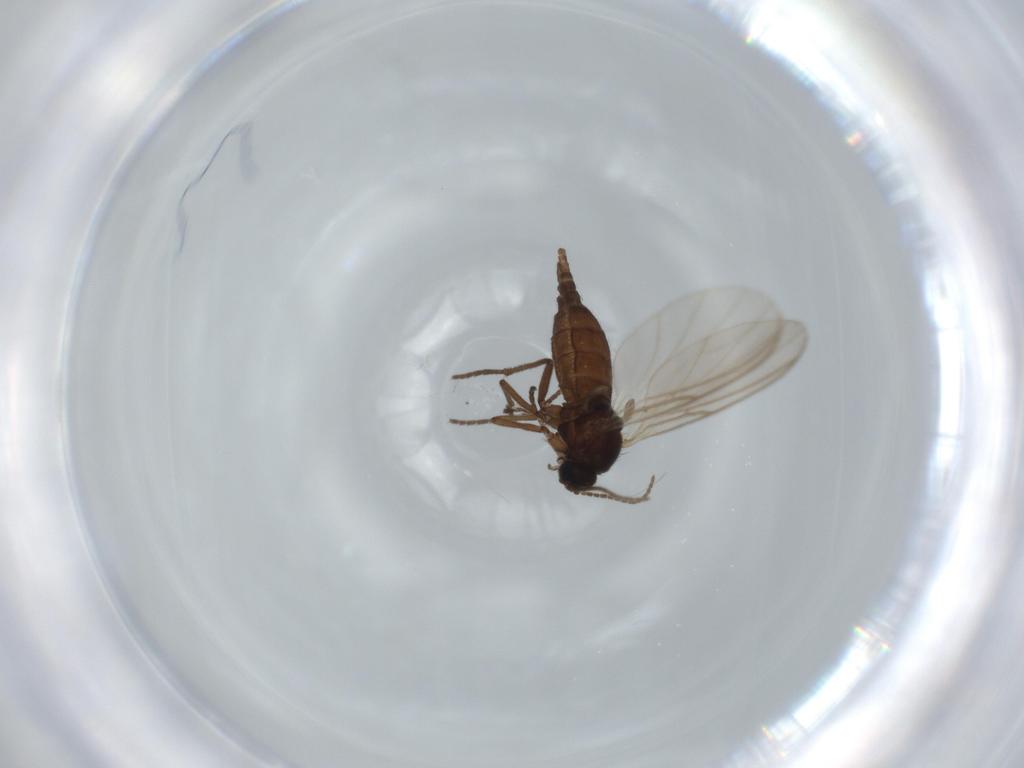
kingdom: Animalia
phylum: Arthropoda
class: Insecta
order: Diptera
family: Sciaridae
